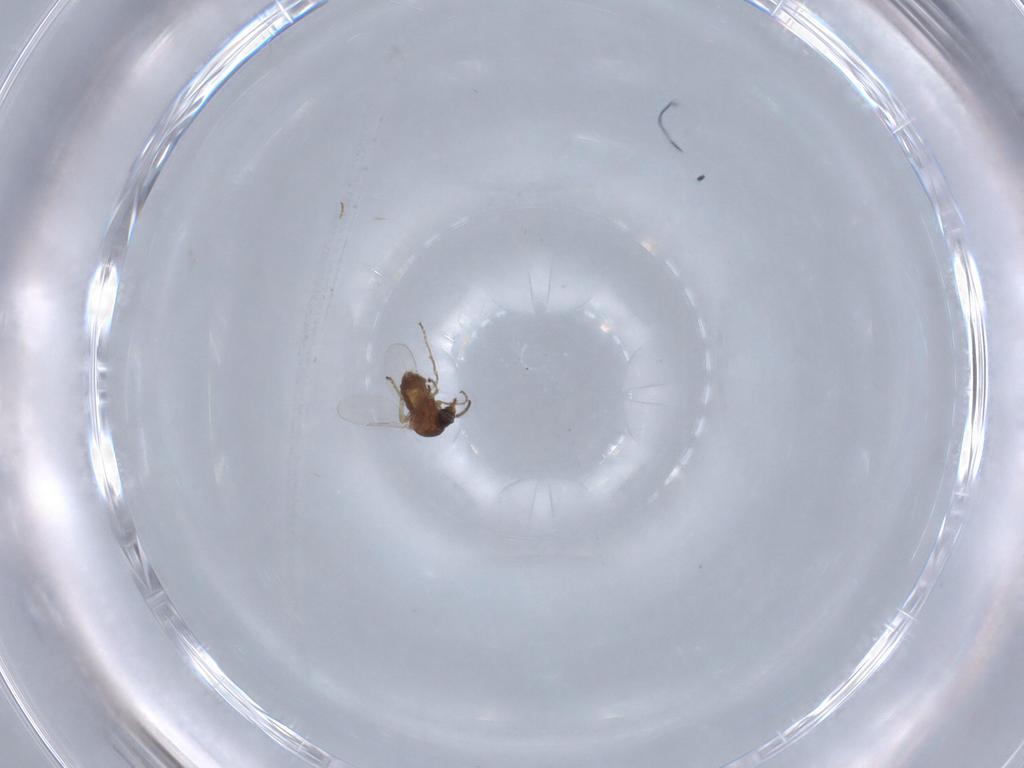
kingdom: Animalia
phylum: Arthropoda
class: Insecta
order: Diptera
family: Ceratopogonidae
